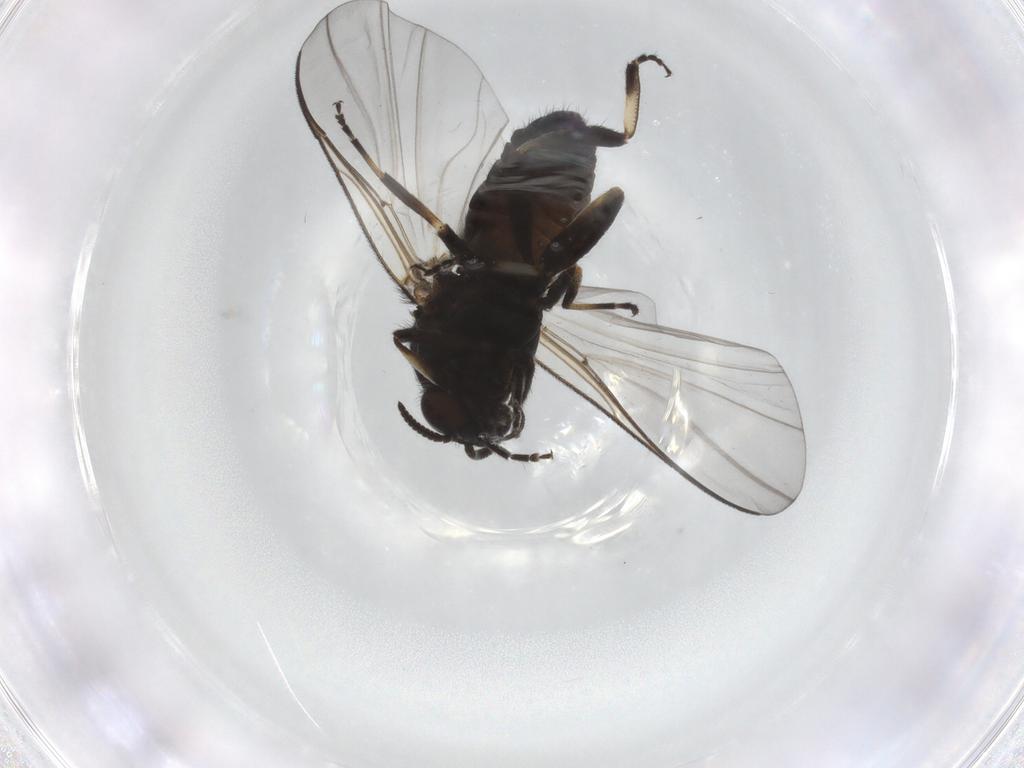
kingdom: Animalia
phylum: Arthropoda
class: Insecta
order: Diptera
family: Psychodidae
